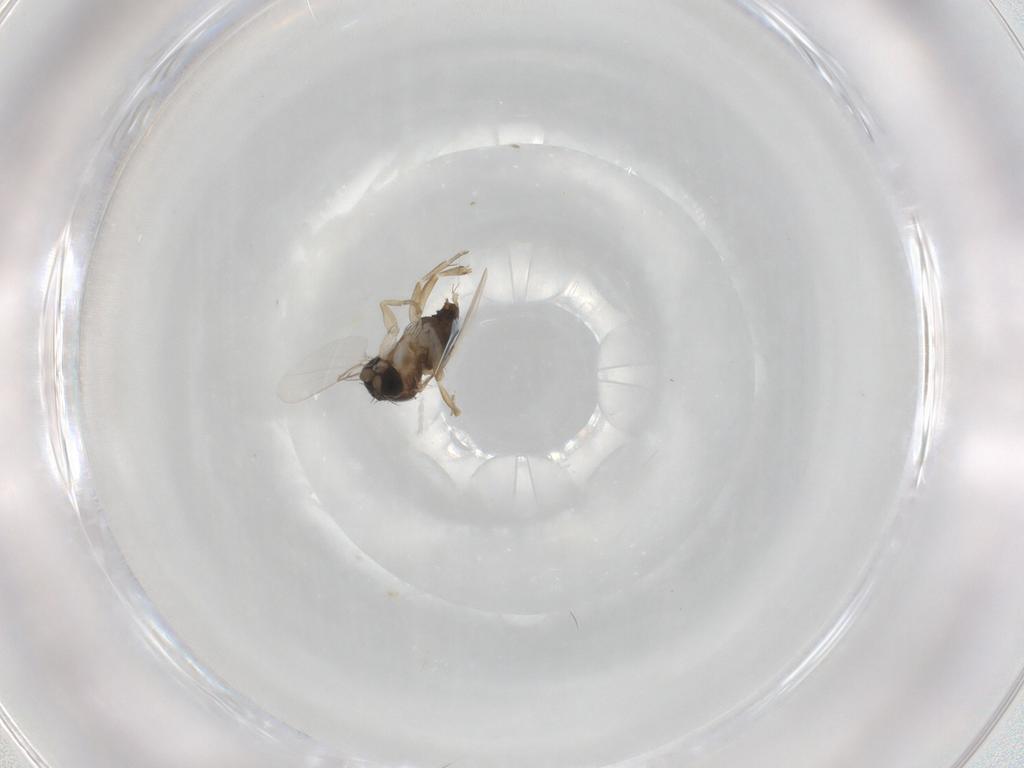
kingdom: Animalia
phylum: Arthropoda
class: Insecta
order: Diptera
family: Phoridae
